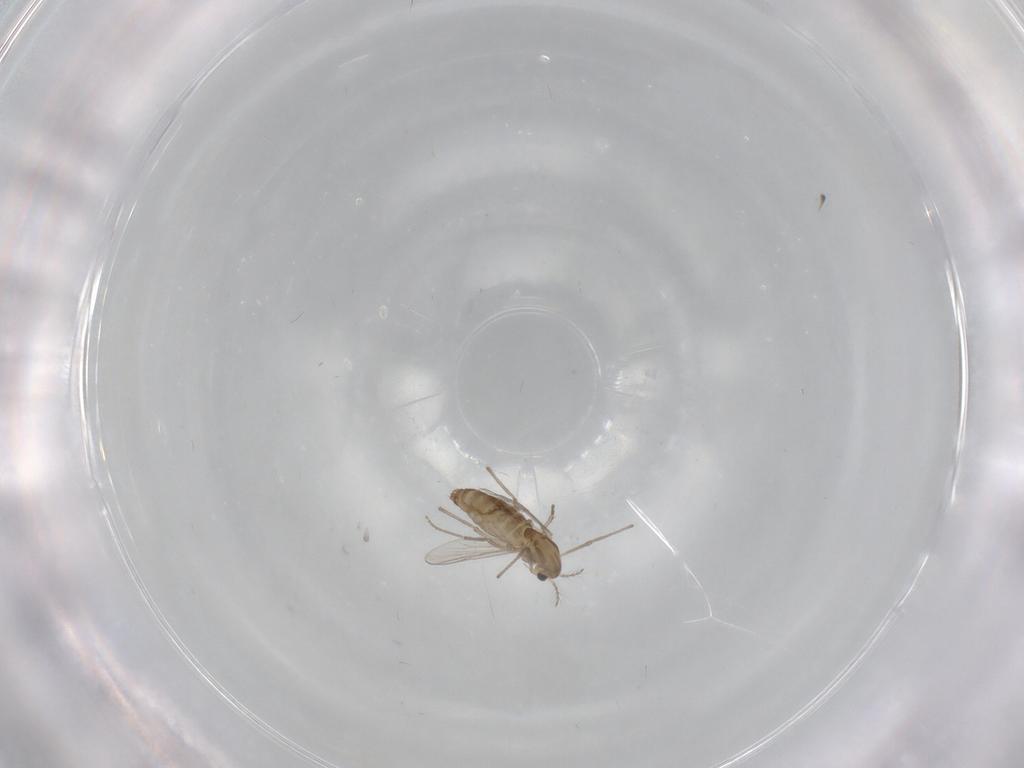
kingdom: Animalia
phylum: Arthropoda
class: Insecta
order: Diptera
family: Chironomidae
